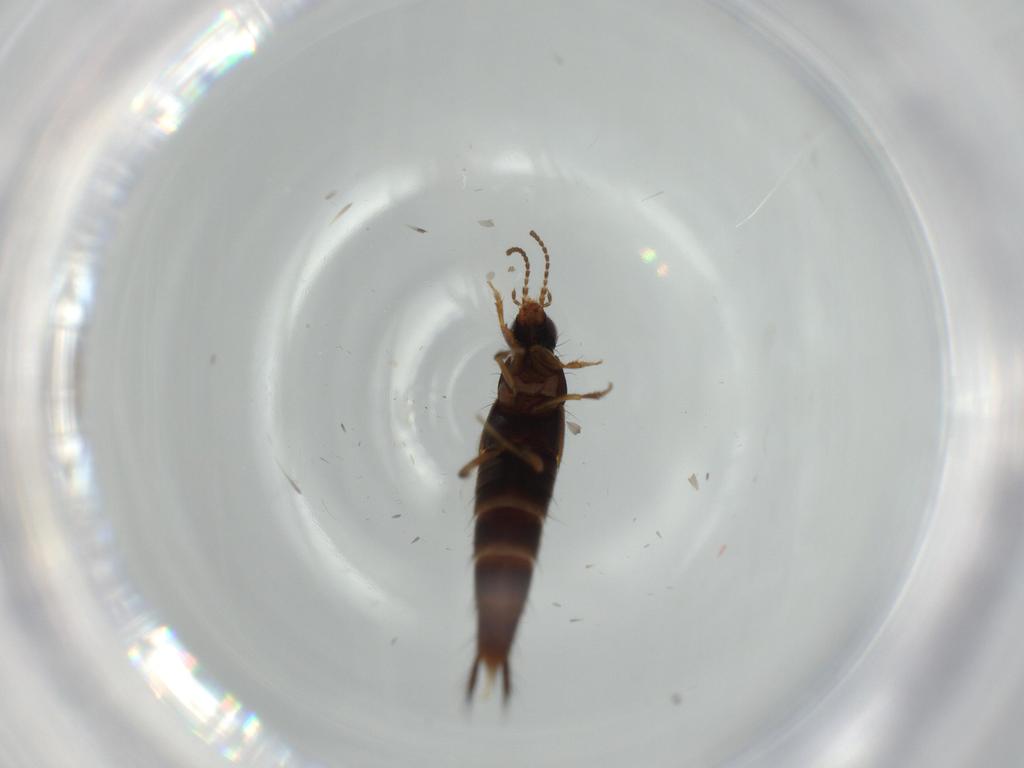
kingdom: Animalia
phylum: Arthropoda
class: Insecta
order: Coleoptera
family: Staphylinidae
